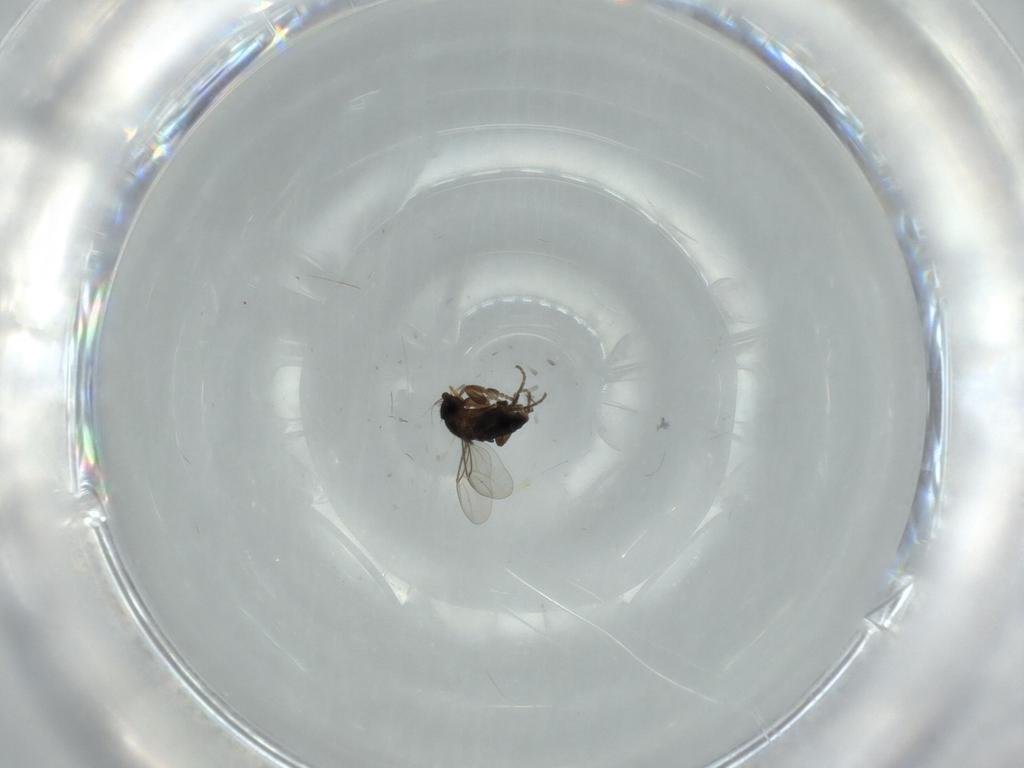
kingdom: Animalia
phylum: Arthropoda
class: Insecta
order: Diptera
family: Phoridae
